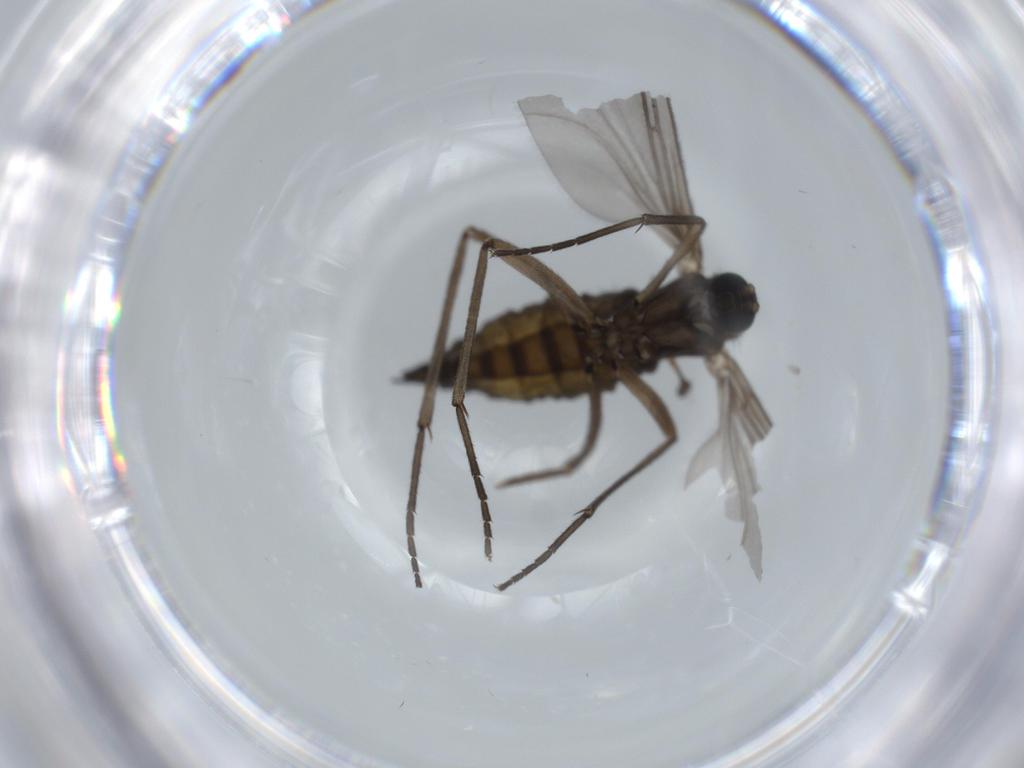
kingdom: Animalia
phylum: Arthropoda
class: Insecta
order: Diptera
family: Sciaridae
